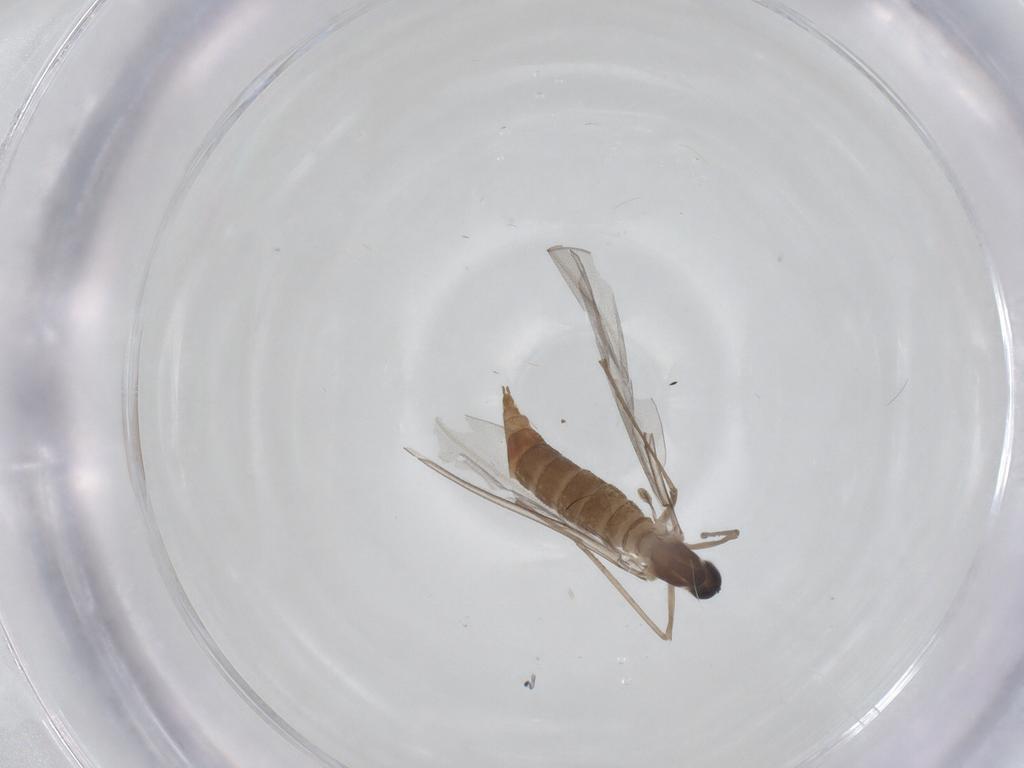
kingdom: Animalia
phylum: Arthropoda
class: Insecta
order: Diptera
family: Cecidomyiidae
